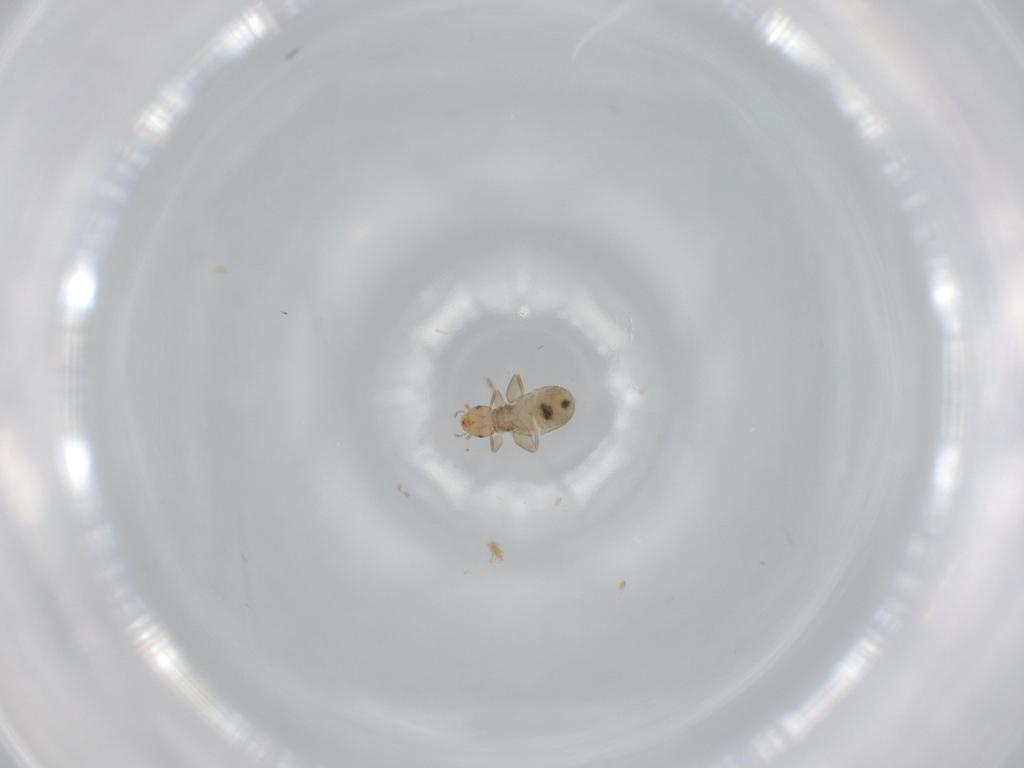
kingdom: Animalia
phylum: Arthropoda
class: Insecta
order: Psocodea
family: Liposcelididae
